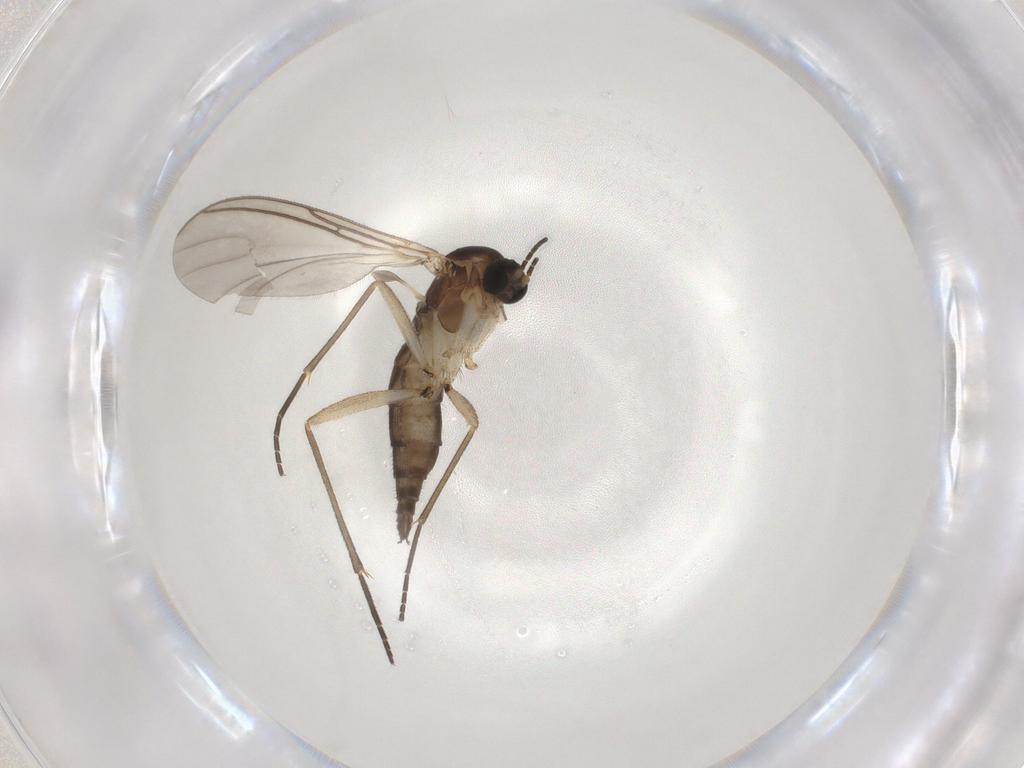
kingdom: Animalia
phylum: Arthropoda
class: Insecta
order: Diptera
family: Sciaridae
